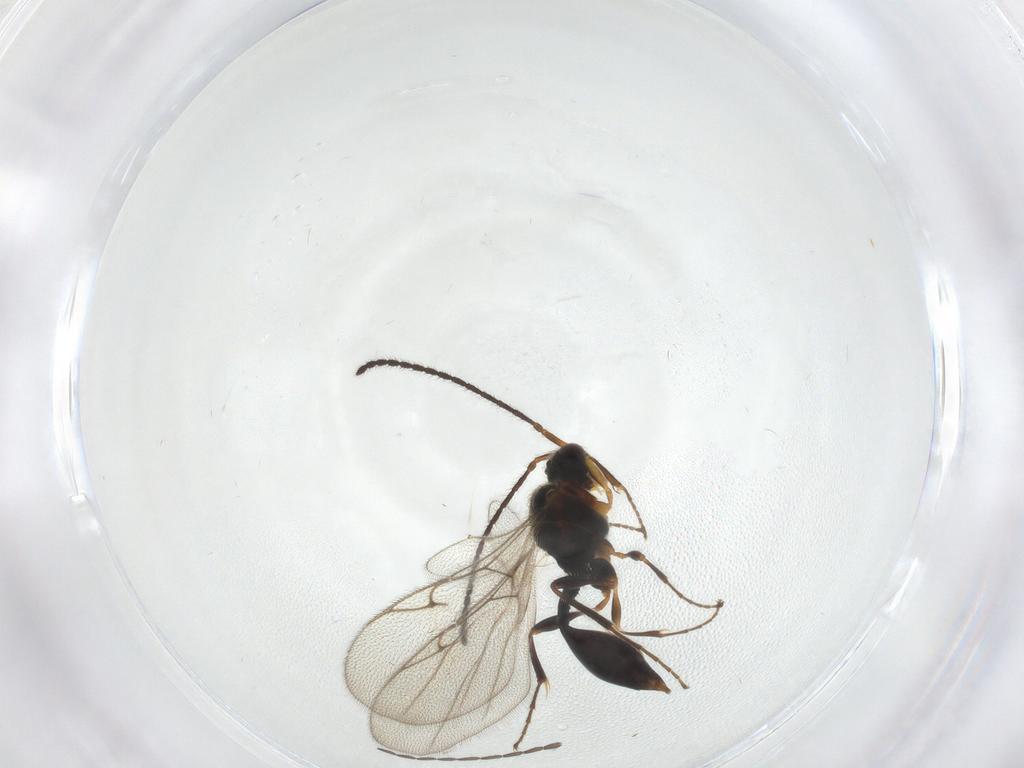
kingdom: Animalia
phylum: Arthropoda
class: Insecta
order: Hymenoptera
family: Diapriidae
